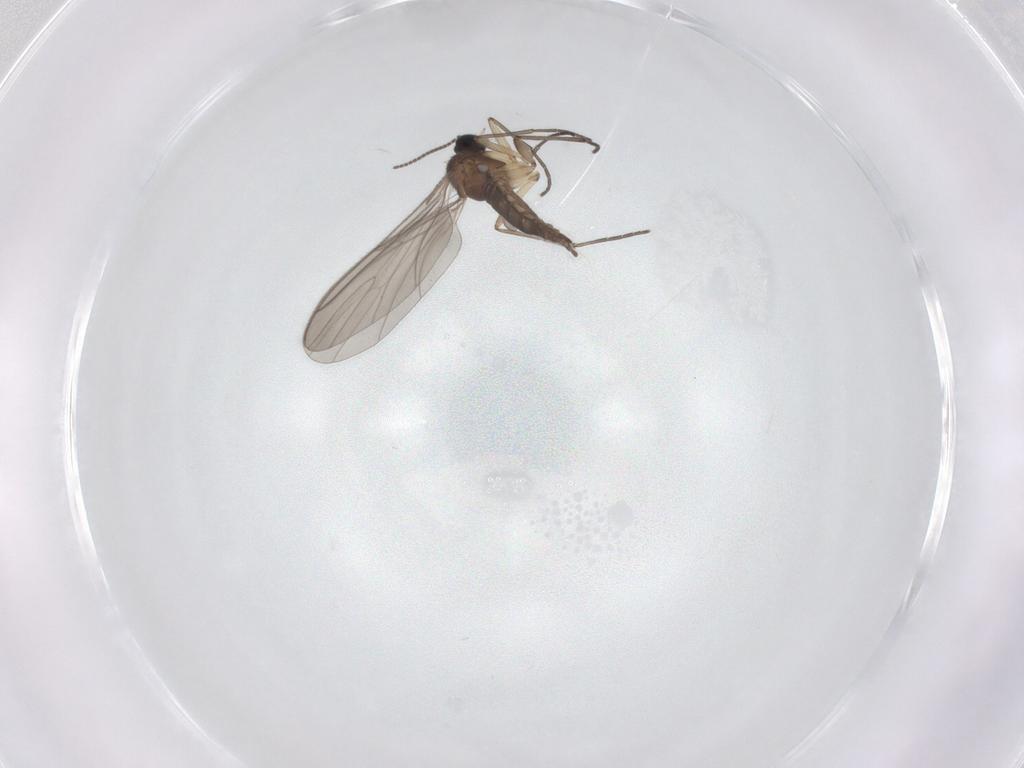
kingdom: Animalia
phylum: Arthropoda
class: Insecta
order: Diptera
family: Sciaridae
